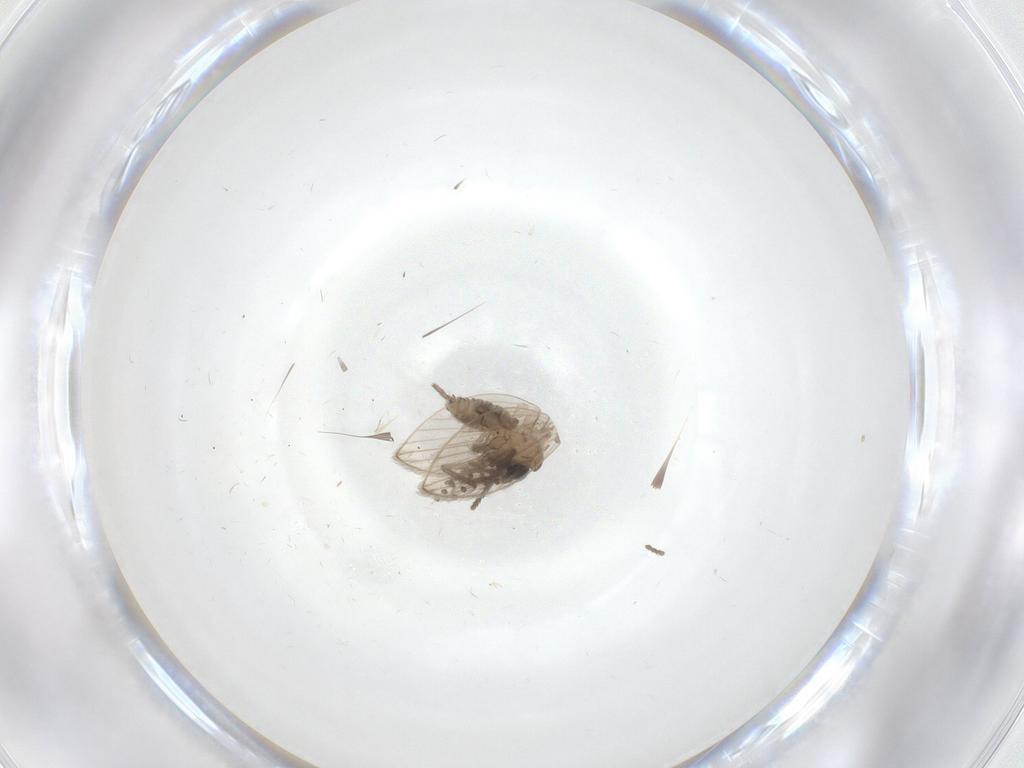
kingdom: Animalia
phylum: Arthropoda
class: Insecta
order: Diptera
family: Psychodidae
